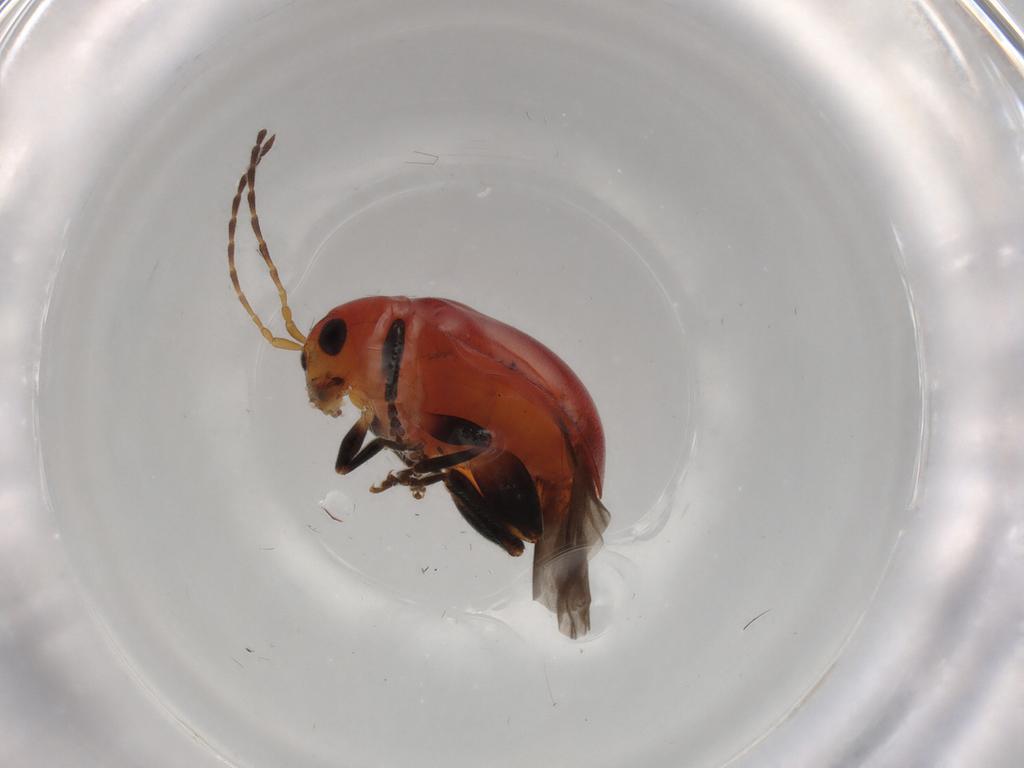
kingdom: Animalia
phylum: Arthropoda
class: Insecta
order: Coleoptera
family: Chrysomelidae
